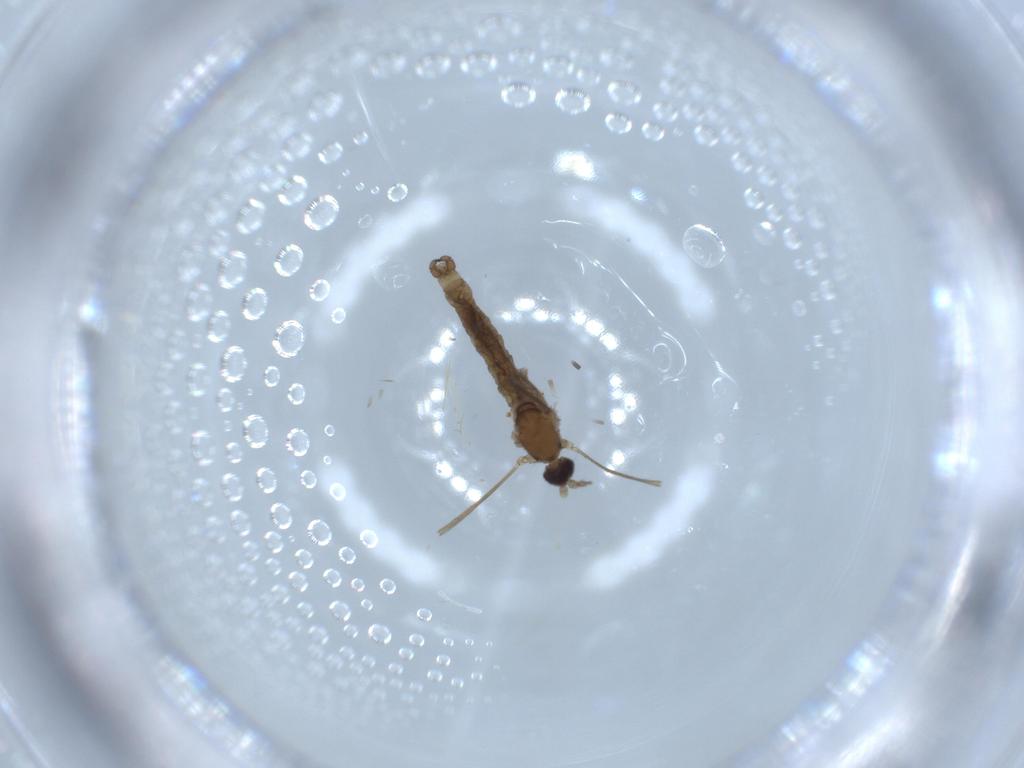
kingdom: Animalia
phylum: Arthropoda
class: Insecta
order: Diptera
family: Cecidomyiidae
